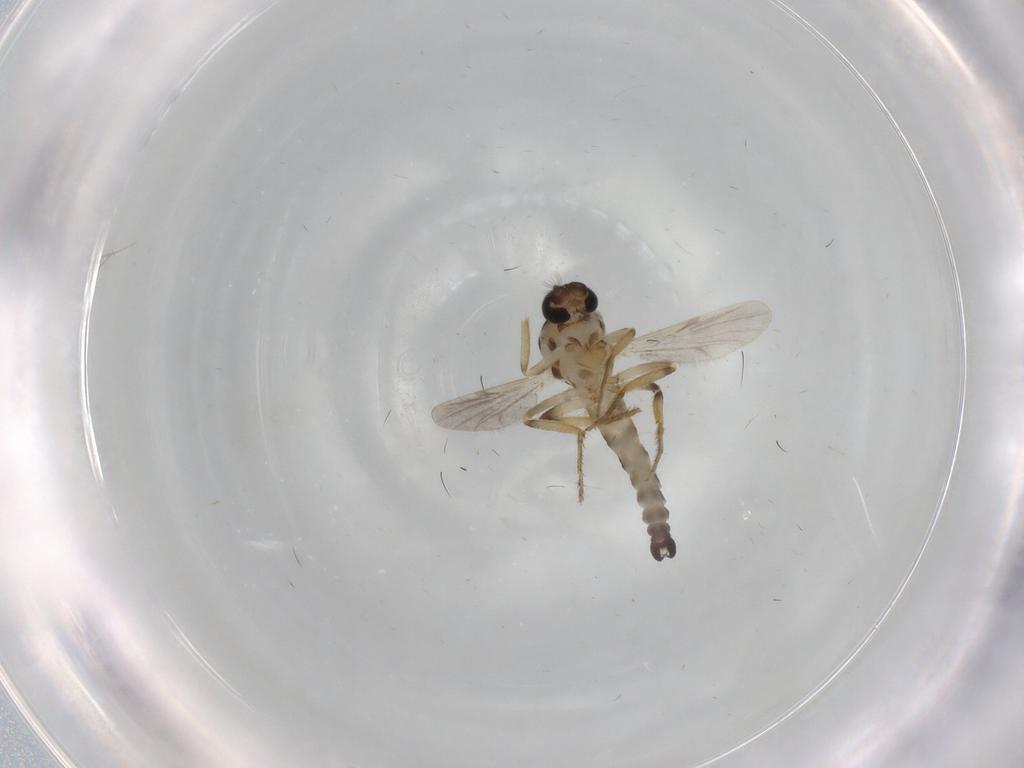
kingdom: Animalia
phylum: Arthropoda
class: Insecta
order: Diptera
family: Ceratopogonidae
